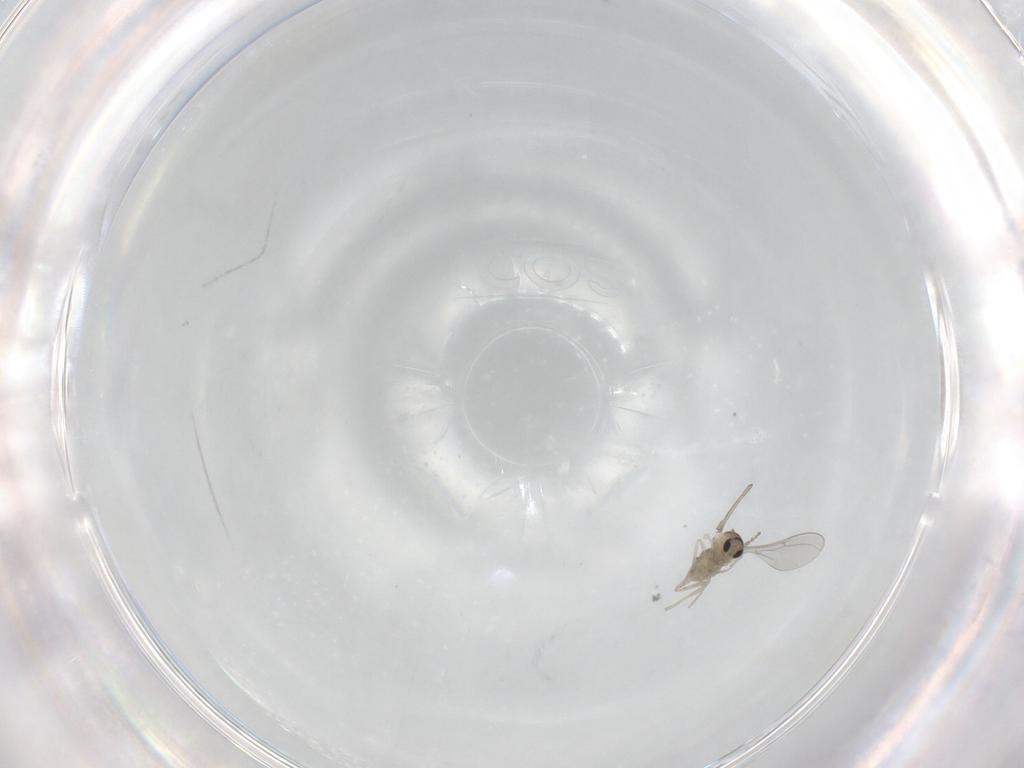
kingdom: Animalia
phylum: Arthropoda
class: Insecta
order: Diptera
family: Cecidomyiidae
